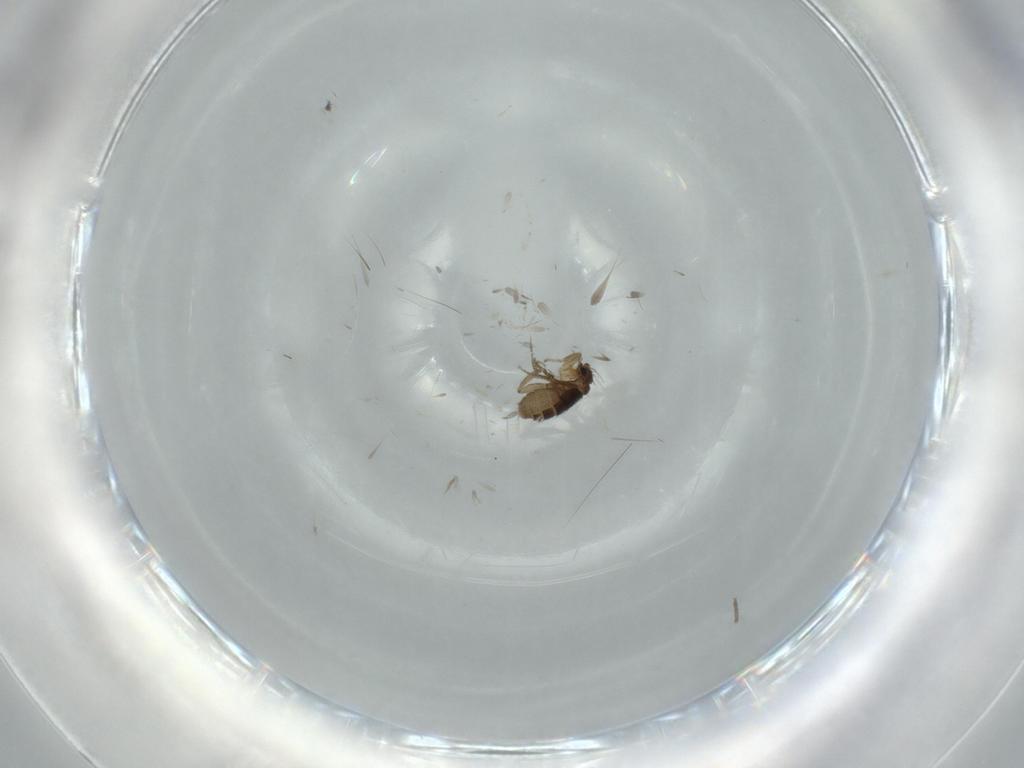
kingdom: Animalia
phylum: Arthropoda
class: Insecta
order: Diptera
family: Phoridae
